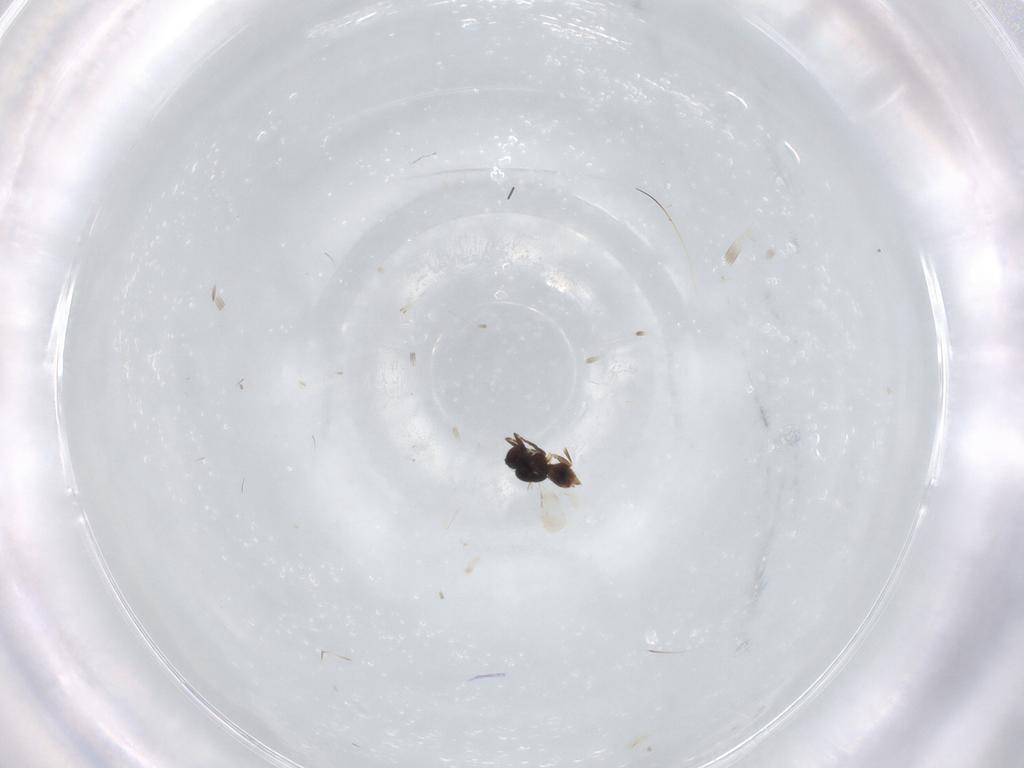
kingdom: Animalia
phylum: Arthropoda
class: Insecta
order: Hymenoptera
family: Ceraphronidae
